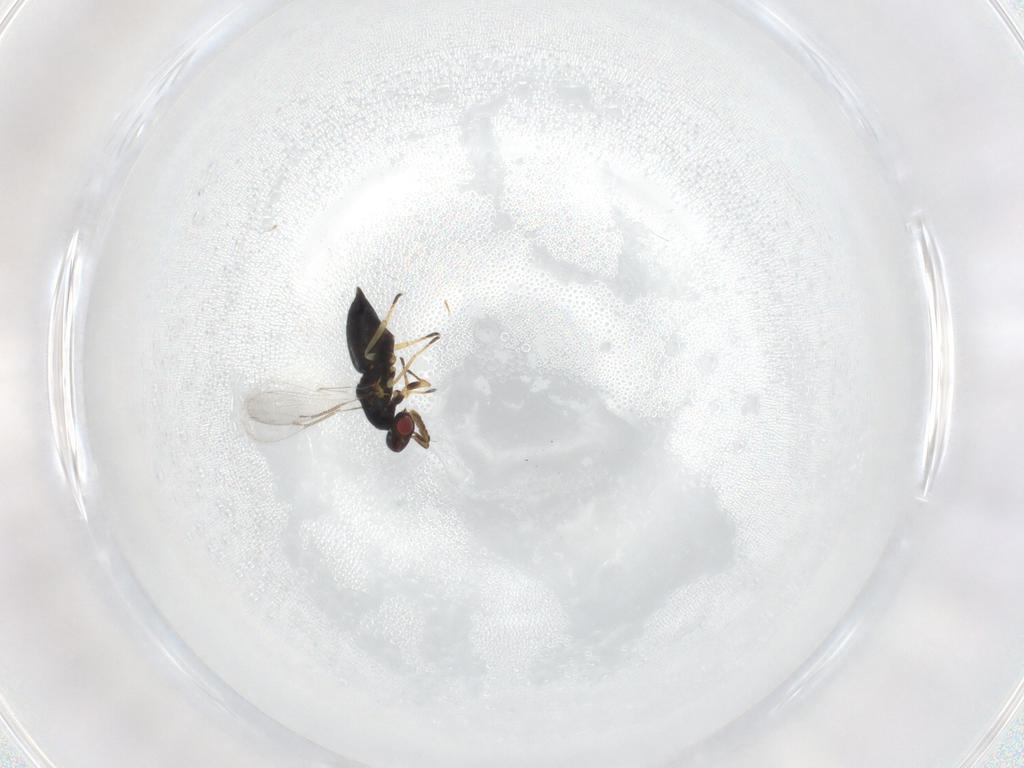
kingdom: Animalia
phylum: Arthropoda
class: Insecta
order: Hymenoptera
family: Eulophidae
